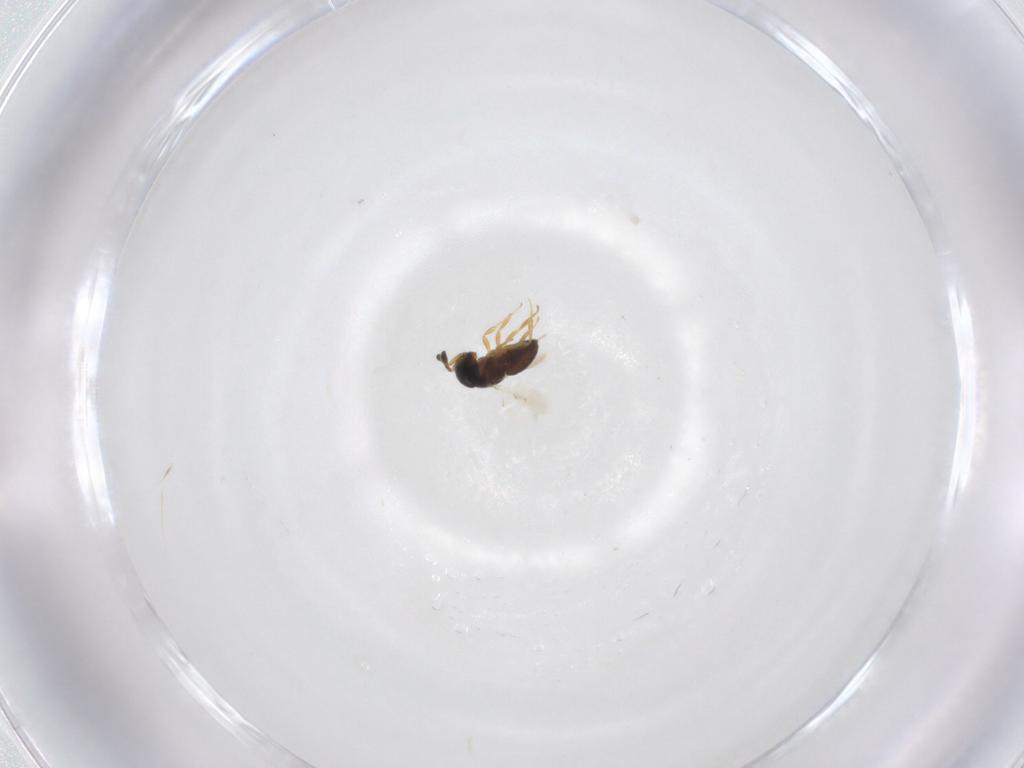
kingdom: Animalia
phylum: Arthropoda
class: Insecta
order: Hymenoptera
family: Scelionidae
